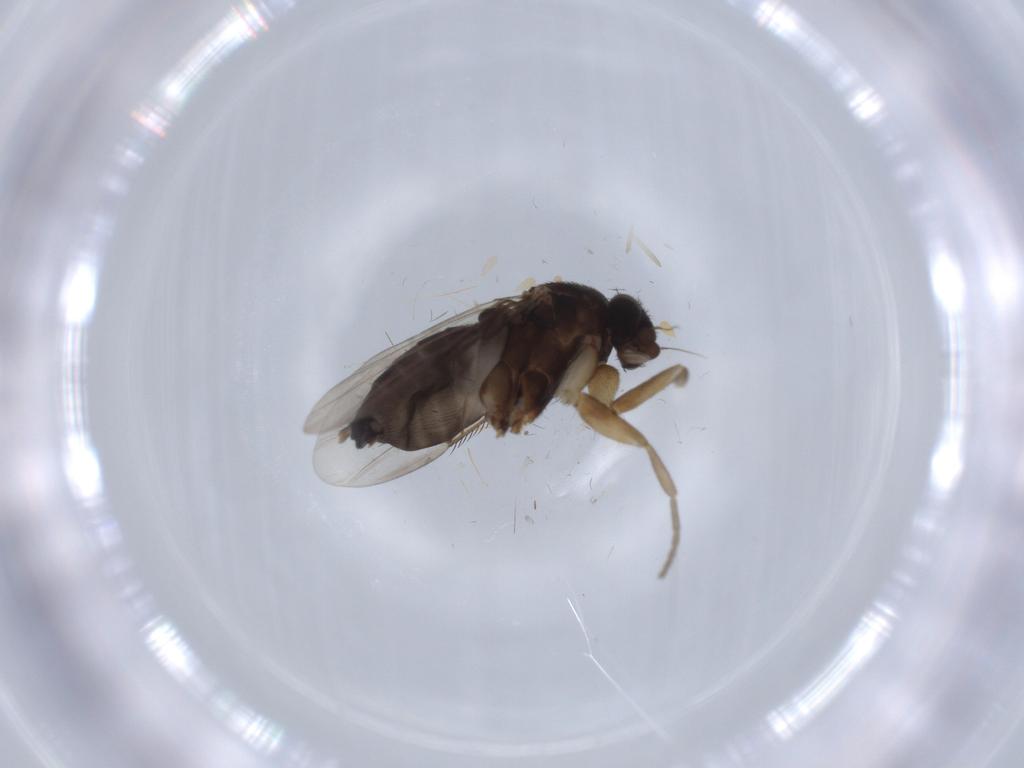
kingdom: Animalia
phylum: Arthropoda
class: Insecta
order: Diptera
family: Phoridae
